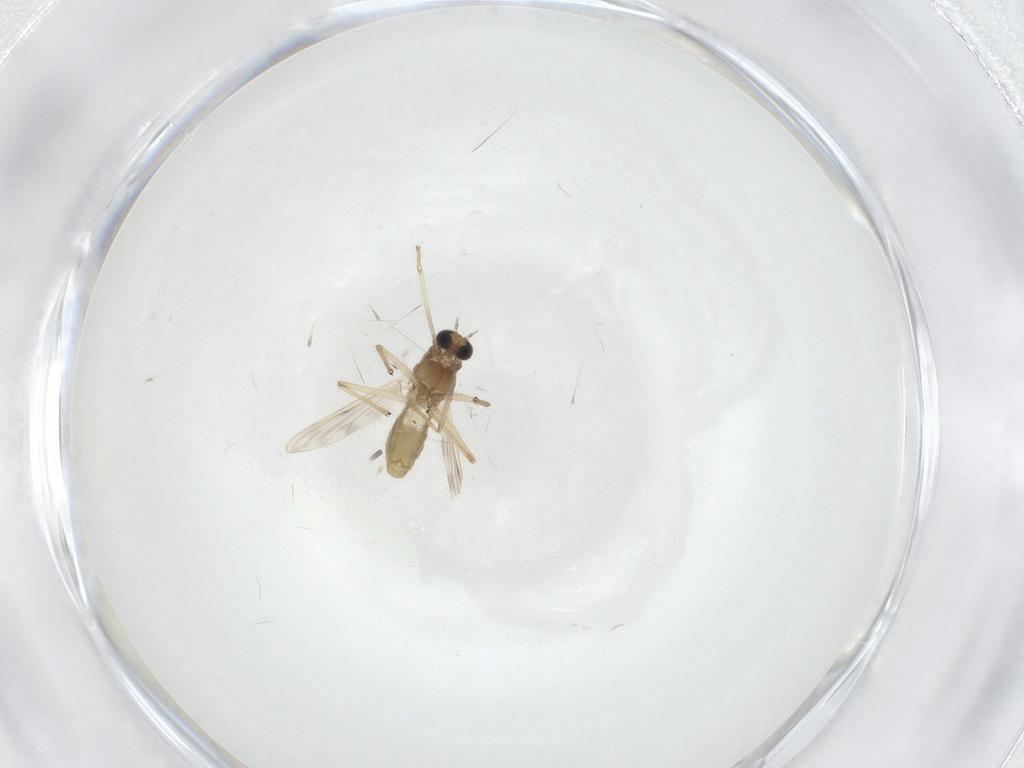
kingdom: Animalia
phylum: Arthropoda
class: Insecta
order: Diptera
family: Chironomidae
